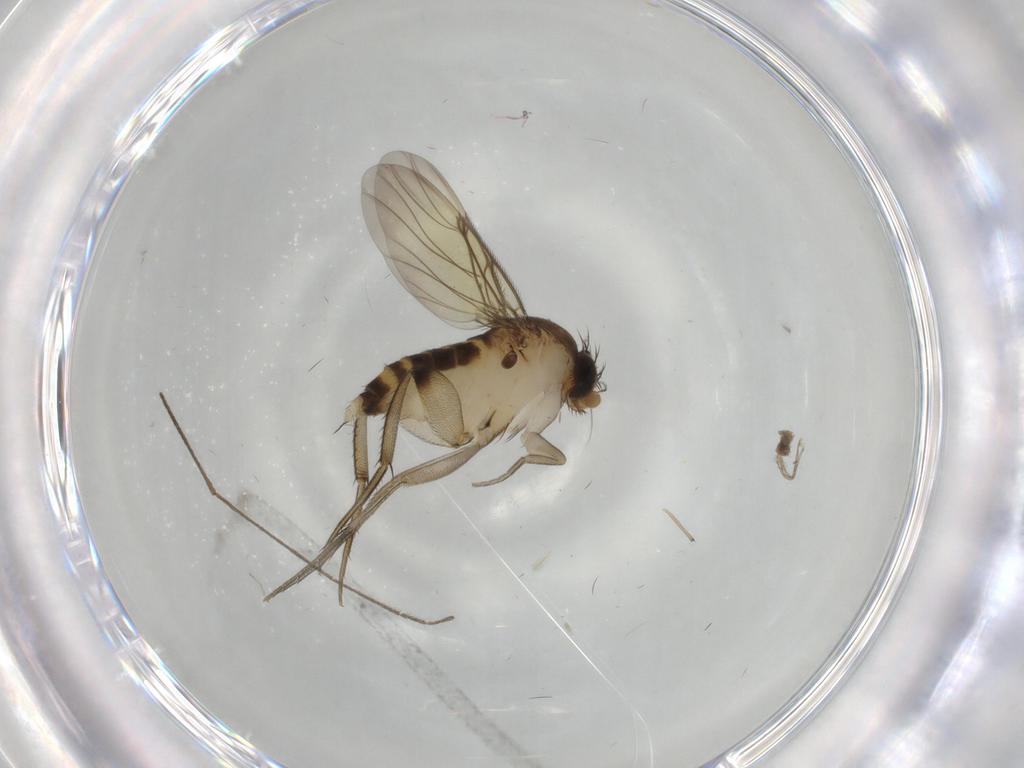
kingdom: Animalia
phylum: Arthropoda
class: Insecta
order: Diptera
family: Phoridae
